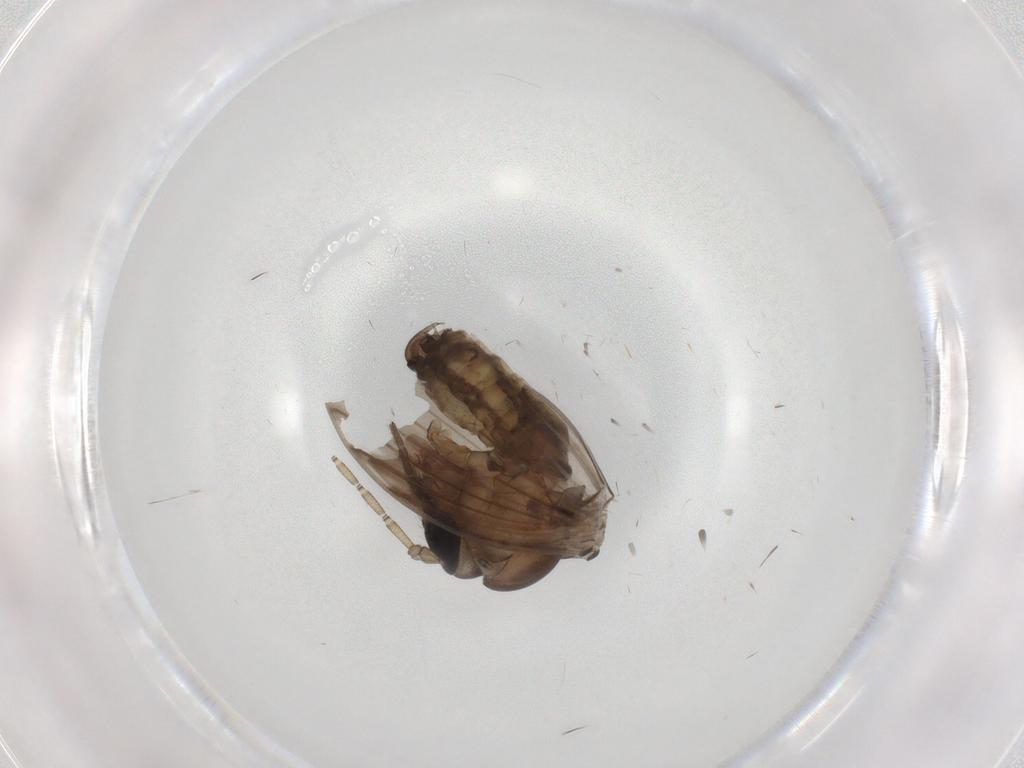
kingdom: Animalia
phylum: Arthropoda
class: Insecta
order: Diptera
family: Psychodidae
